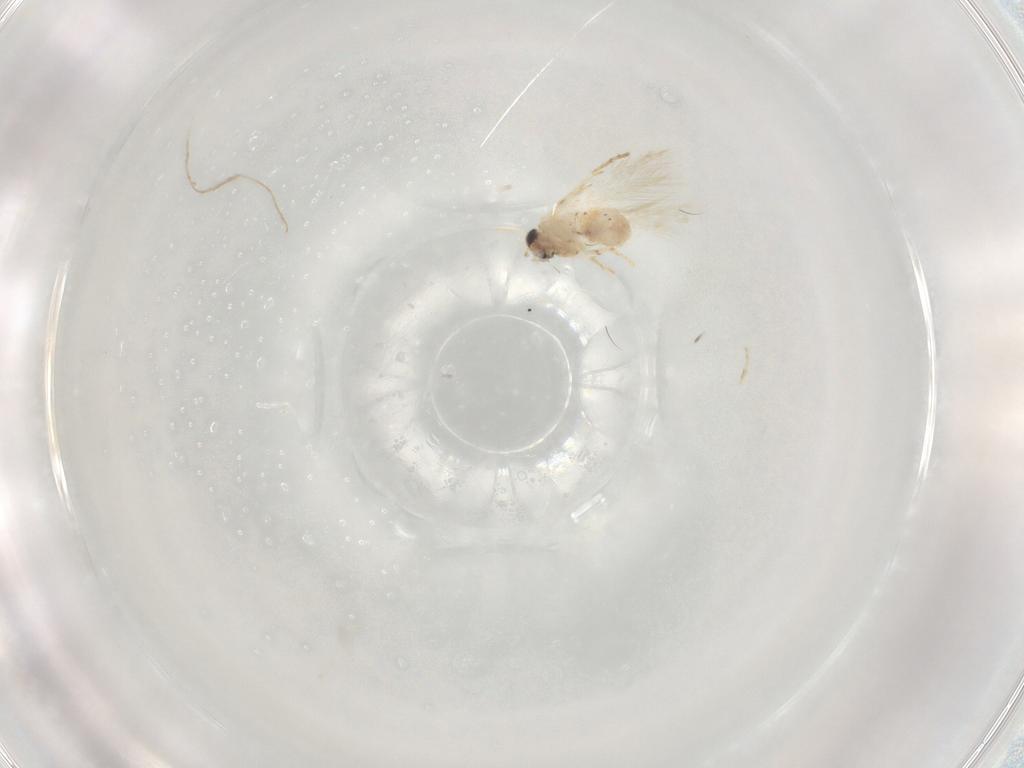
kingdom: Animalia
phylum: Arthropoda
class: Insecta
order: Lepidoptera
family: Nepticulidae
